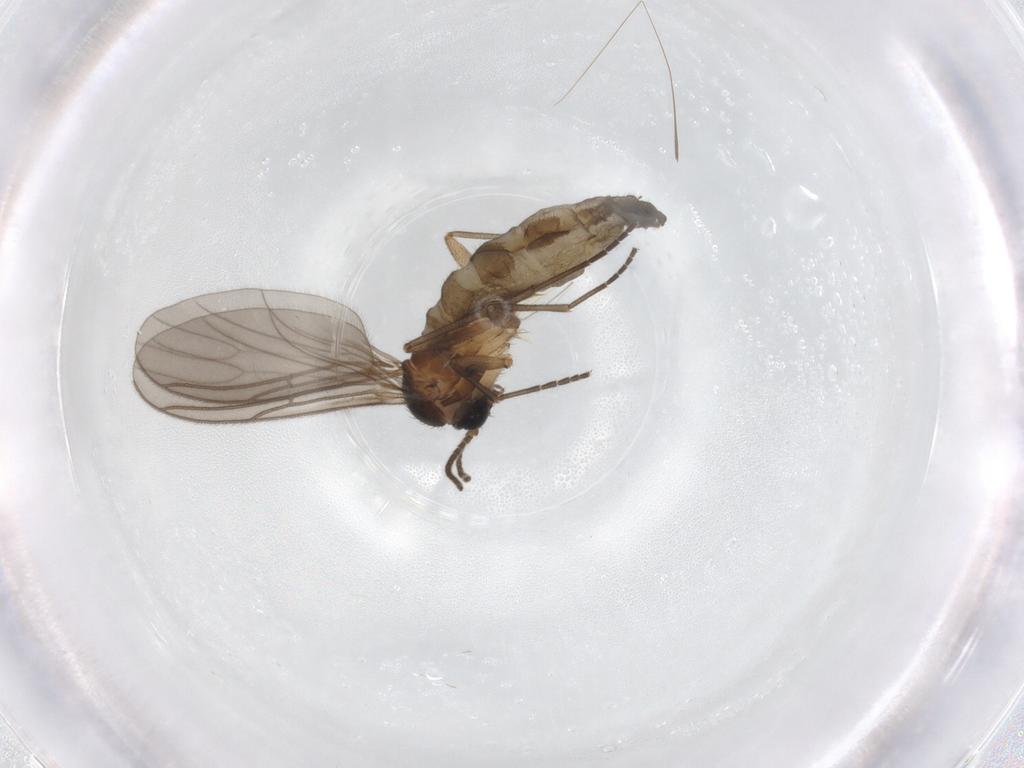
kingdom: Animalia
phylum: Arthropoda
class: Insecta
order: Diptera
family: Sciaridae
